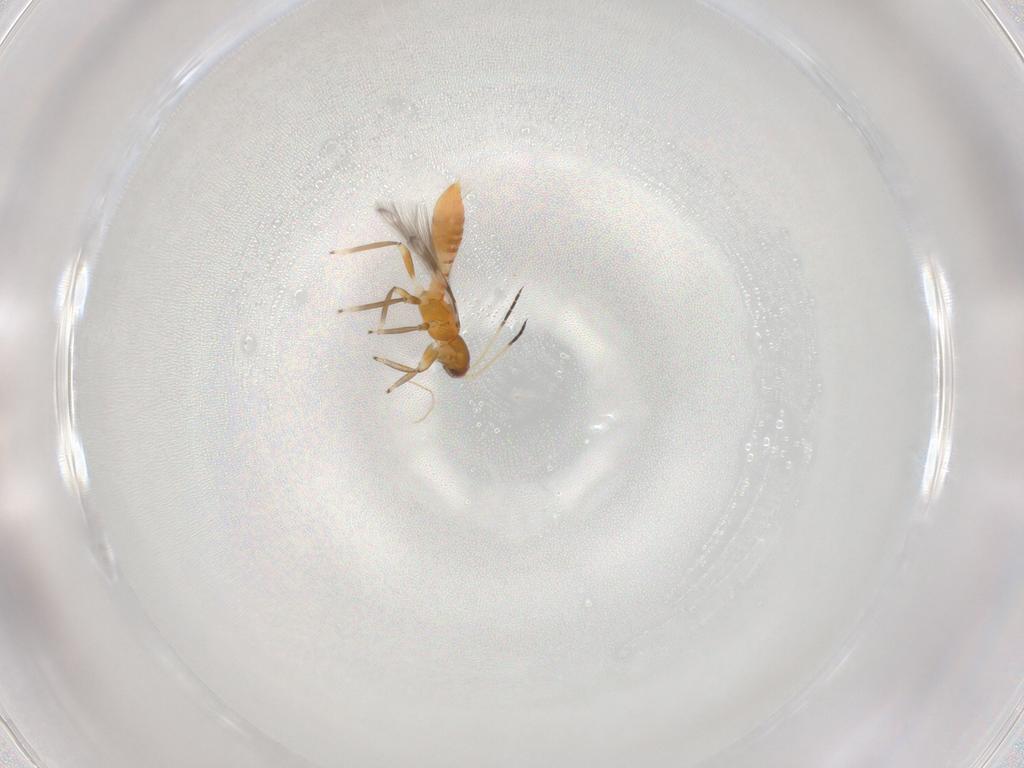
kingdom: Animalia
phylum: Arthropoda
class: Insecta
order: Thysanoptera
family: Aeolothripidae
